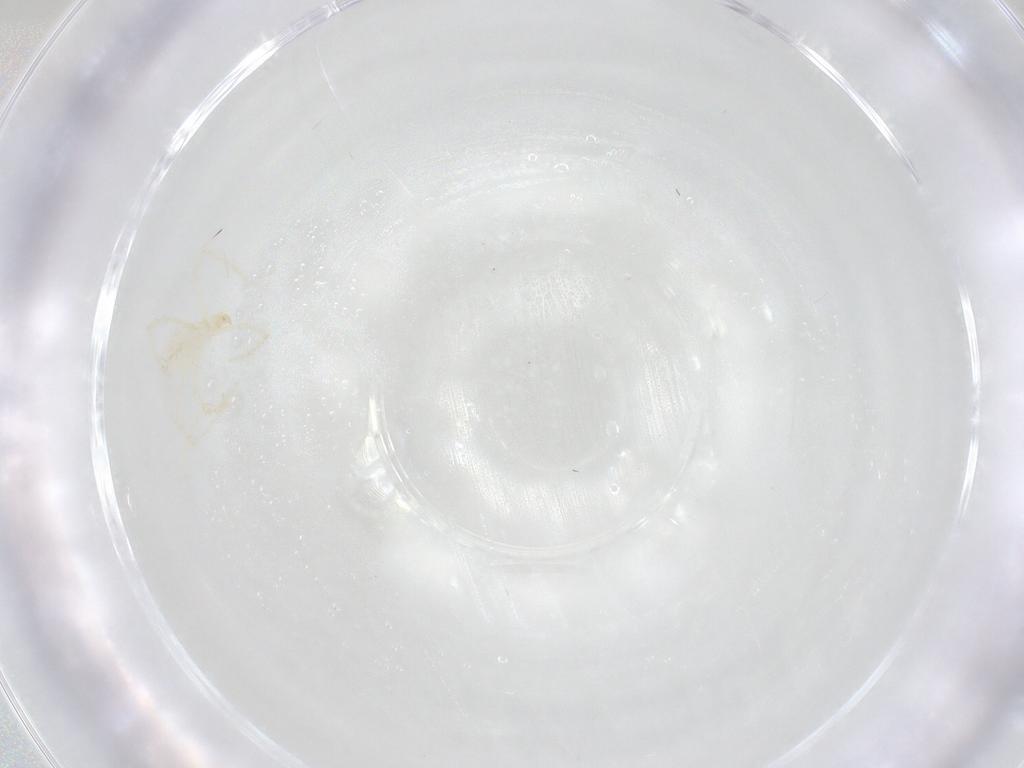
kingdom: Animalia
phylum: Arthropoda
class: Arachnida
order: Trombidiformes
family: Erythraeidae
